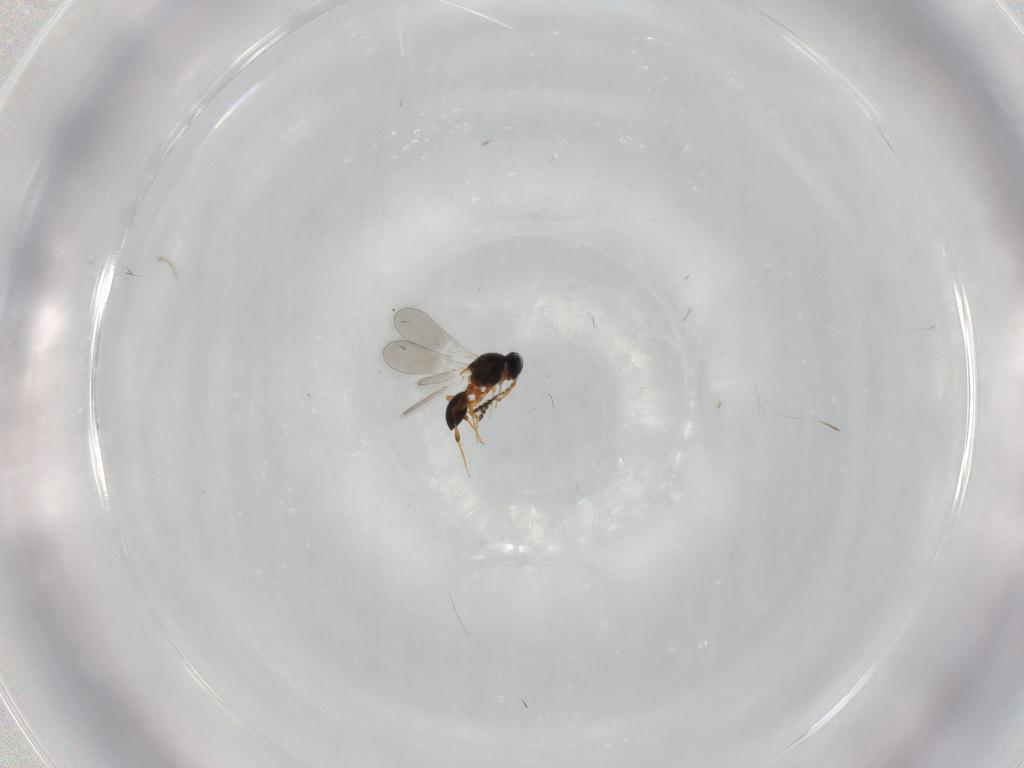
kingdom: Animalia
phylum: Arthropoda
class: Insecta
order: Hymenoptera
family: Platygastridae
